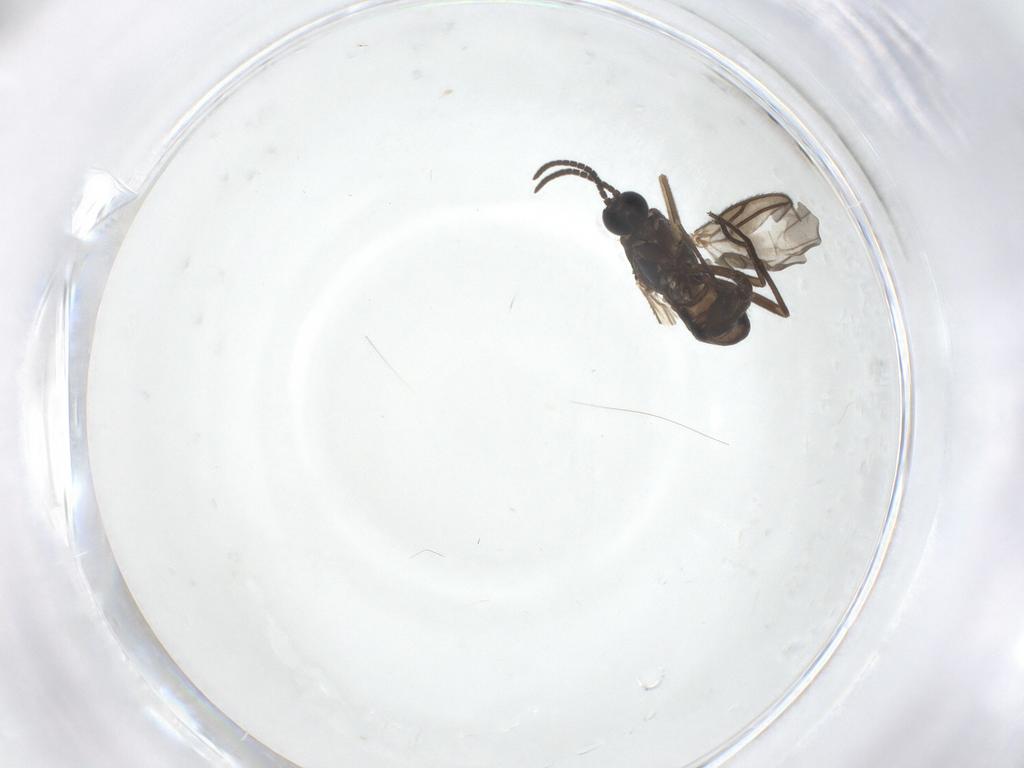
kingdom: Animalia
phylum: Arthropoda
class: Insecta
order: Diptera
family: Sciaridae
